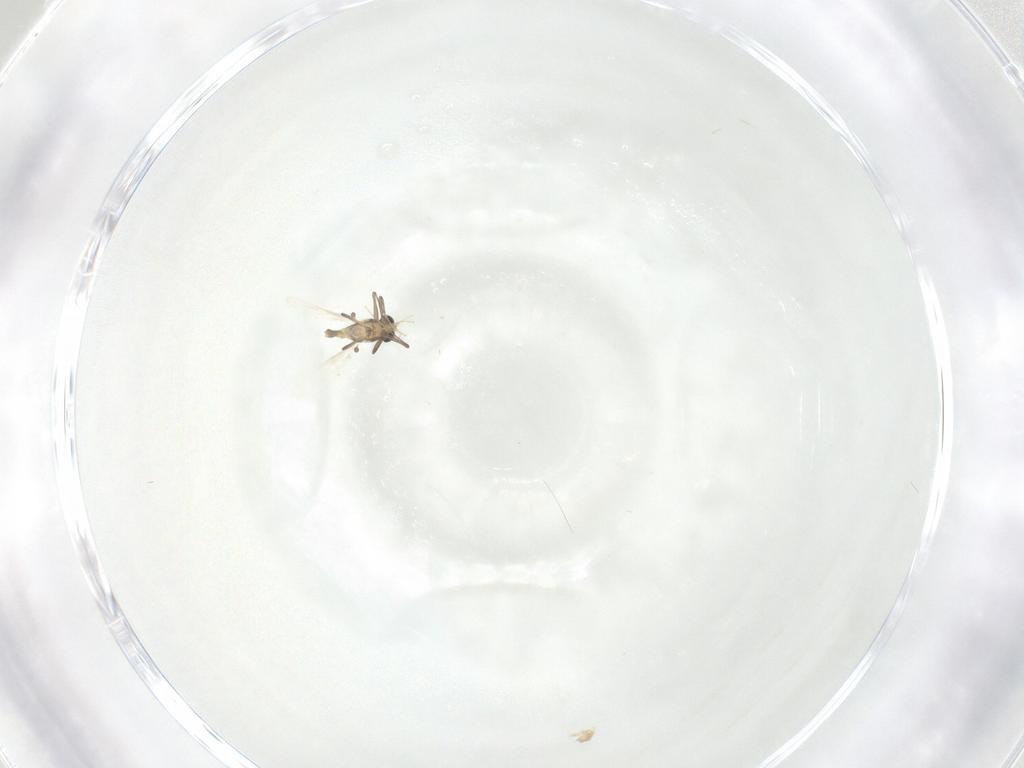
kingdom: Animalia
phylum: Arthropoda
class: Insecta
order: Diptera
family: Chironomidae
